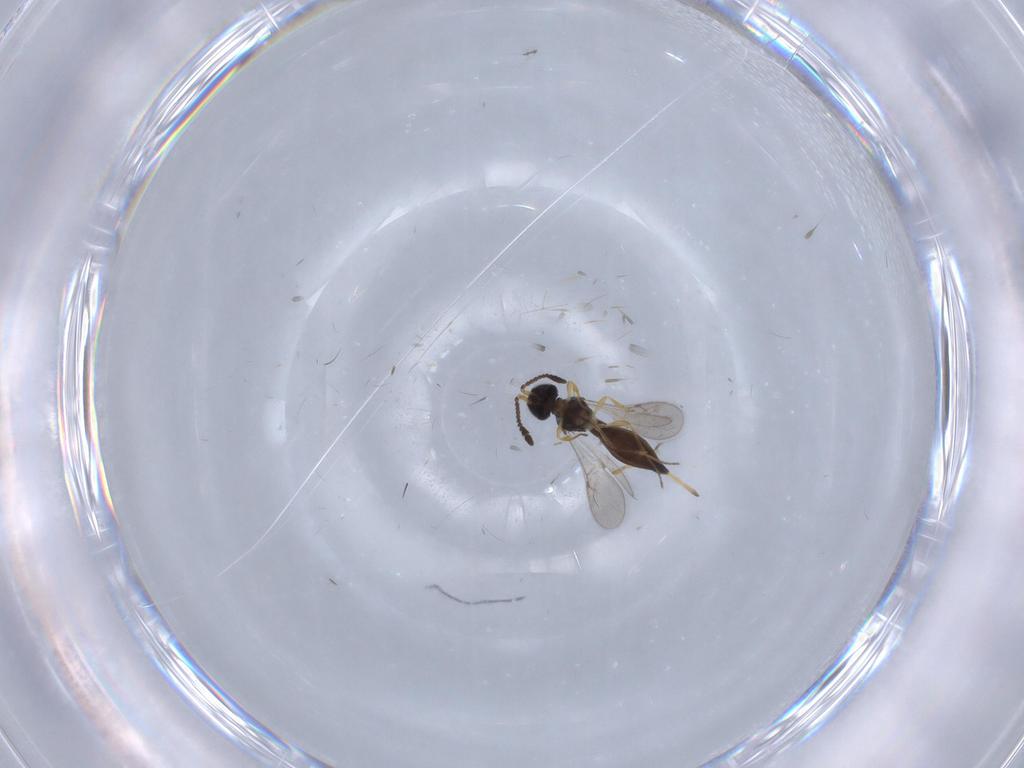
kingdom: Animalia
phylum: Arthropoda
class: Insecta
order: Hymenoptera
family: Scelionidae
